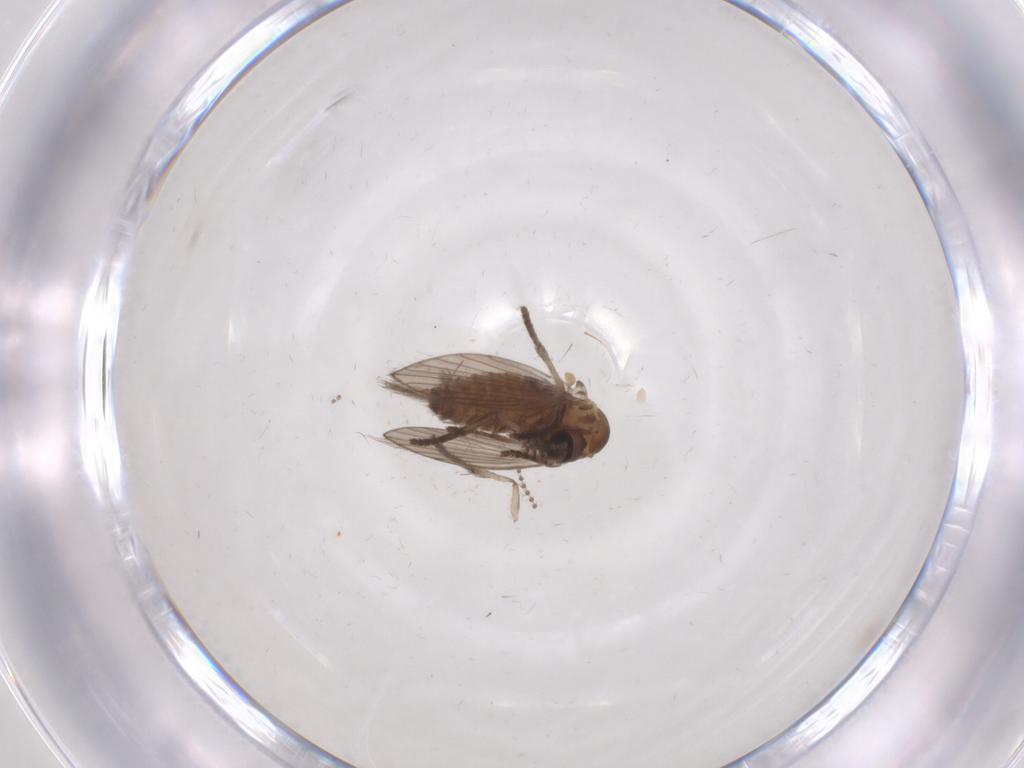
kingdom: Animalia
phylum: Arthropoda
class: Insecta
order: Diptera
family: Psychodidae
